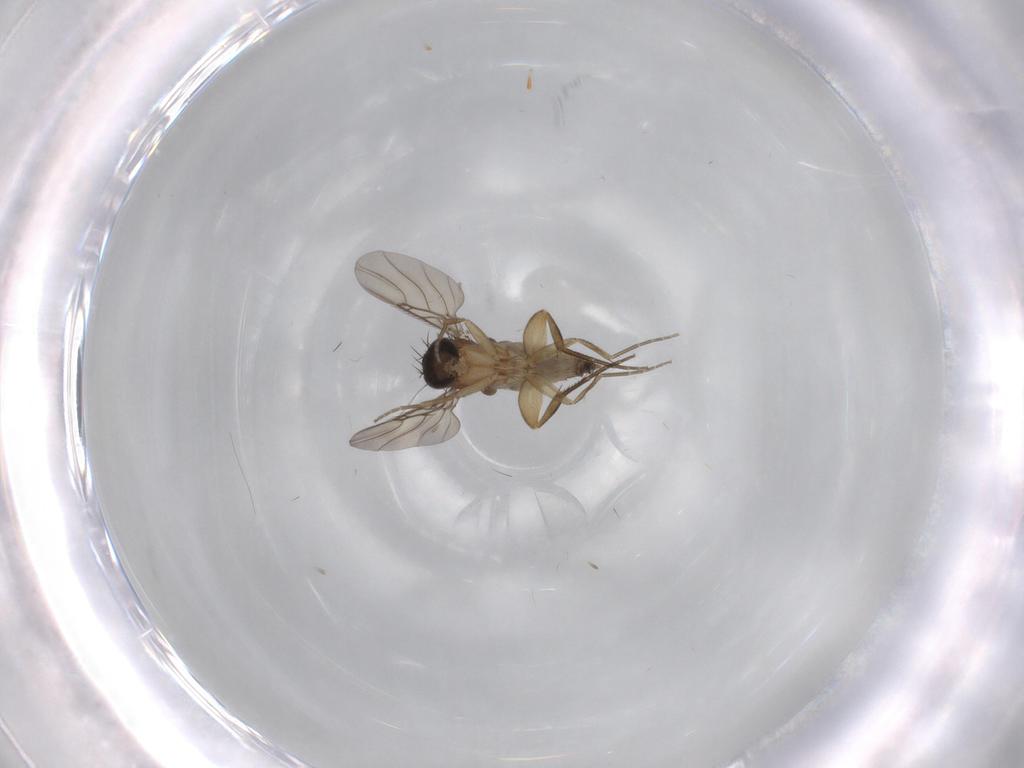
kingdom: Animalia
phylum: Arthropoda
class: Insecta
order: Diptera
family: Phoridae
